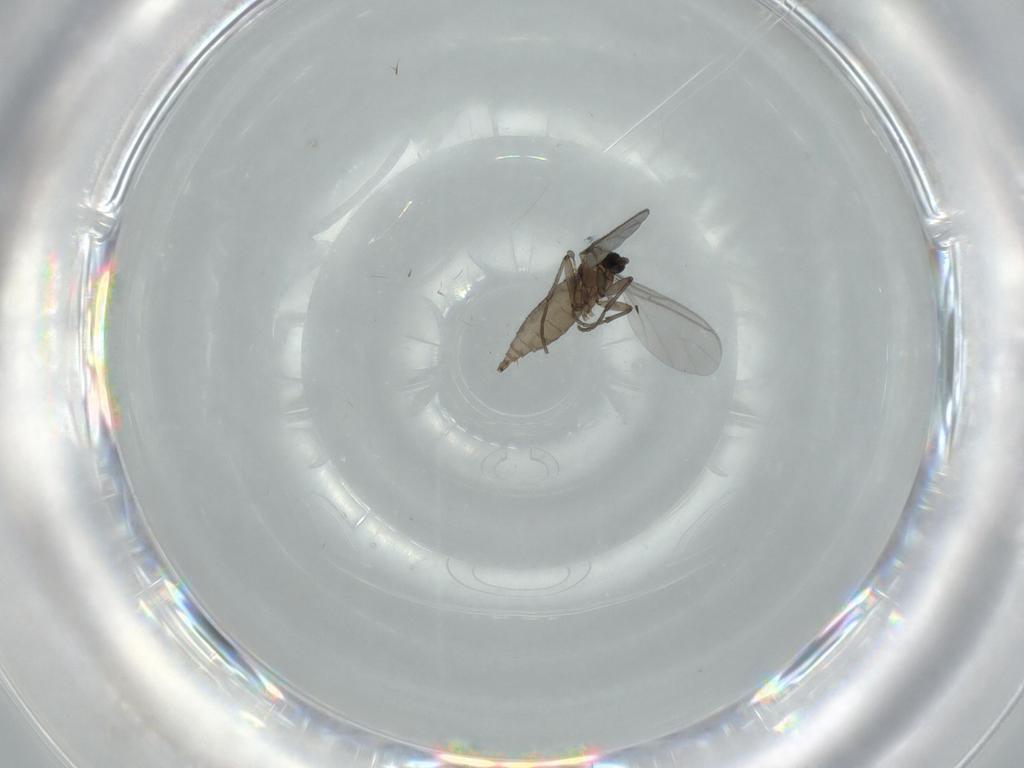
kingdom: Animalia
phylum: Arthropoda
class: Insecta
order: Diptera
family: Sciaridae
